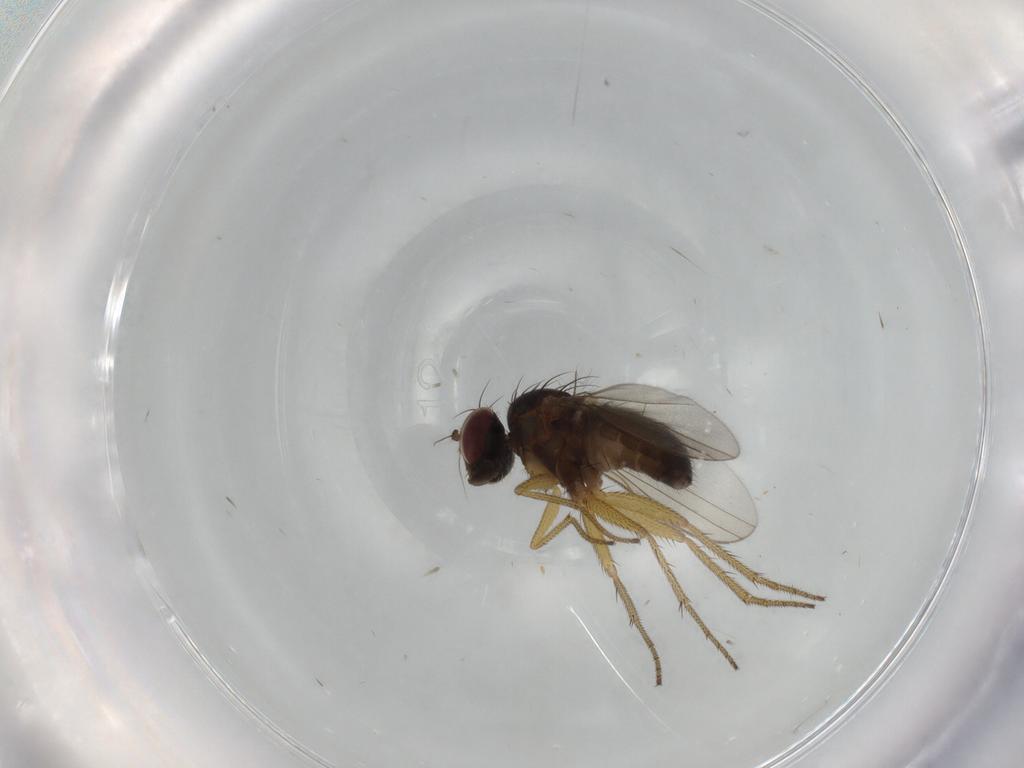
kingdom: Animalia
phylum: Arthropoda
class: Insecta
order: Diptera
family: Dolichopodidae
